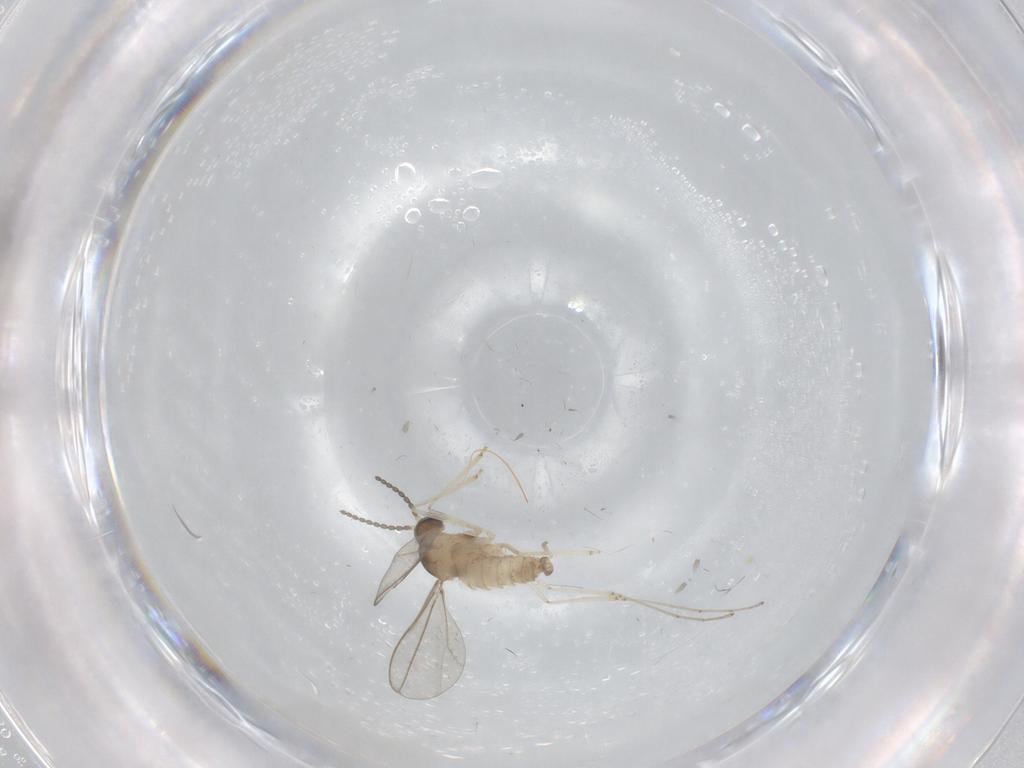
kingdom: Animalia
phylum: Arthropoda
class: Insecta
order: Diptera
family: Cecidomyiidae
